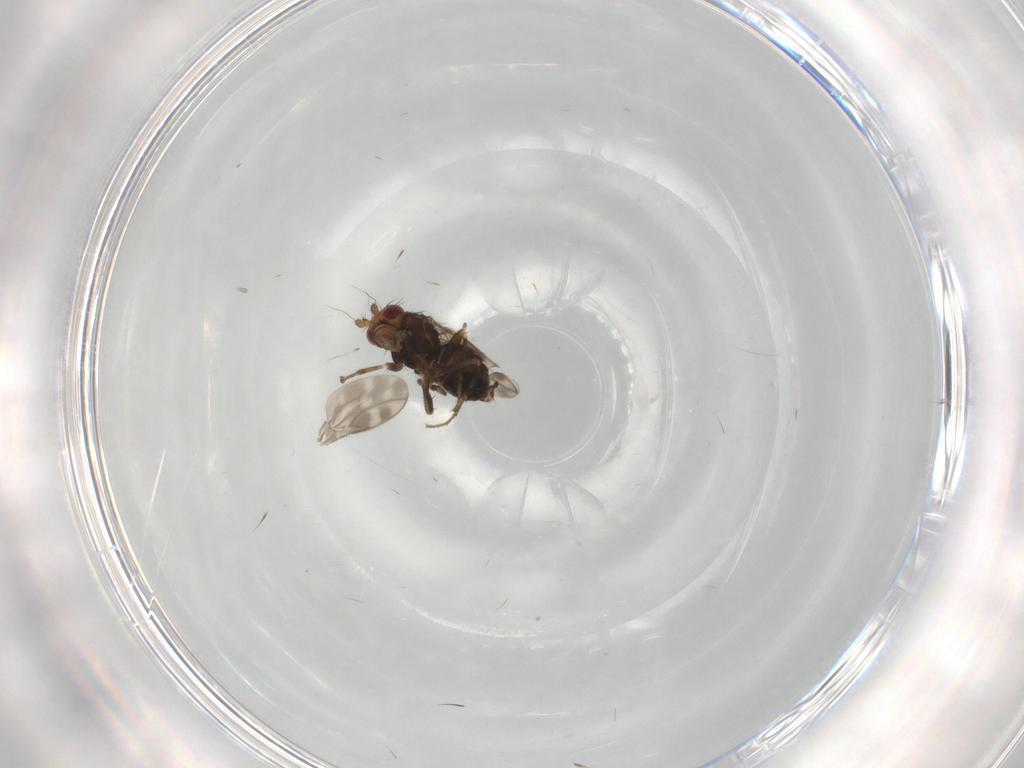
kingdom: Animalia
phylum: Arthropoda
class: Insecta
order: Diptera
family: Sphaeroceridae
